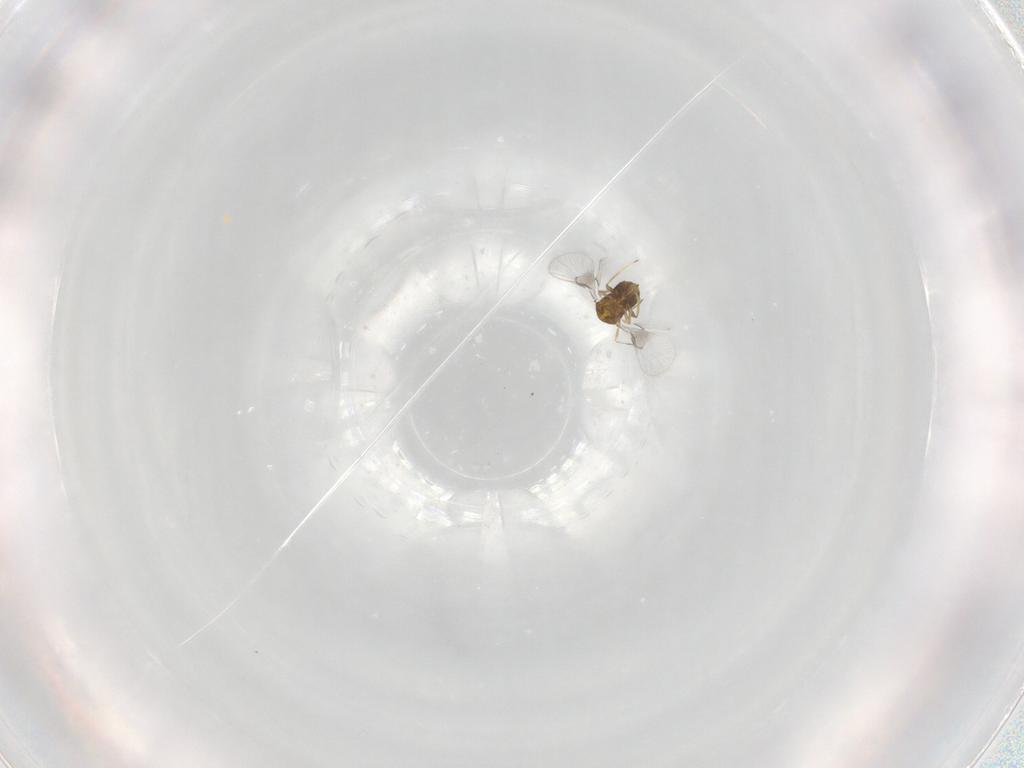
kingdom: Animalia
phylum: Arthropoda
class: Insecta
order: Hymenoptera
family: Trichogrammatidae
